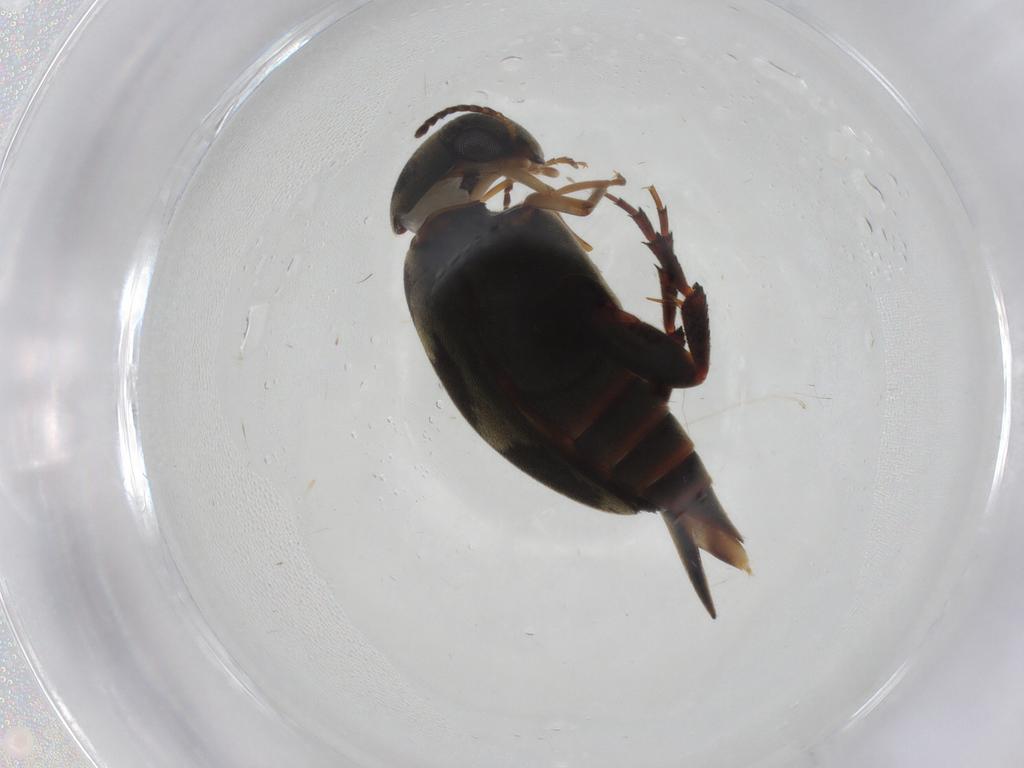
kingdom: Animalia
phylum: Arthropoda
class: Insecta
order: Coleoptera
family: Mordellidae
